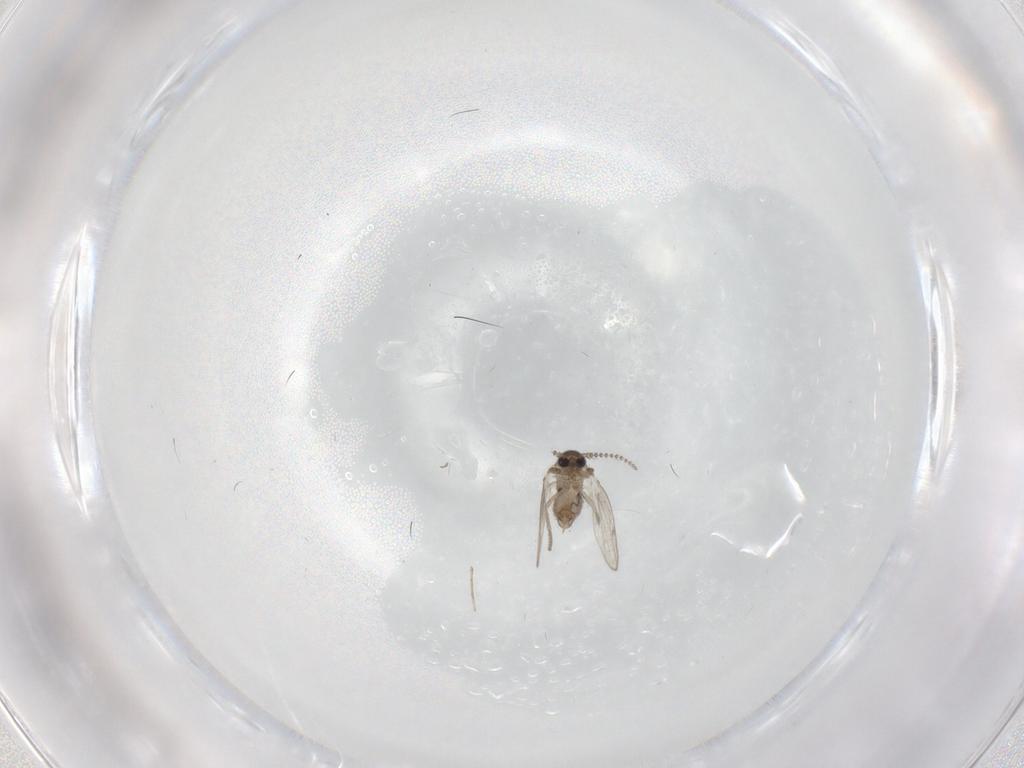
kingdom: Animalia
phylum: Arthropoda
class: Insecta
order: Diptera
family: Psychodidae
